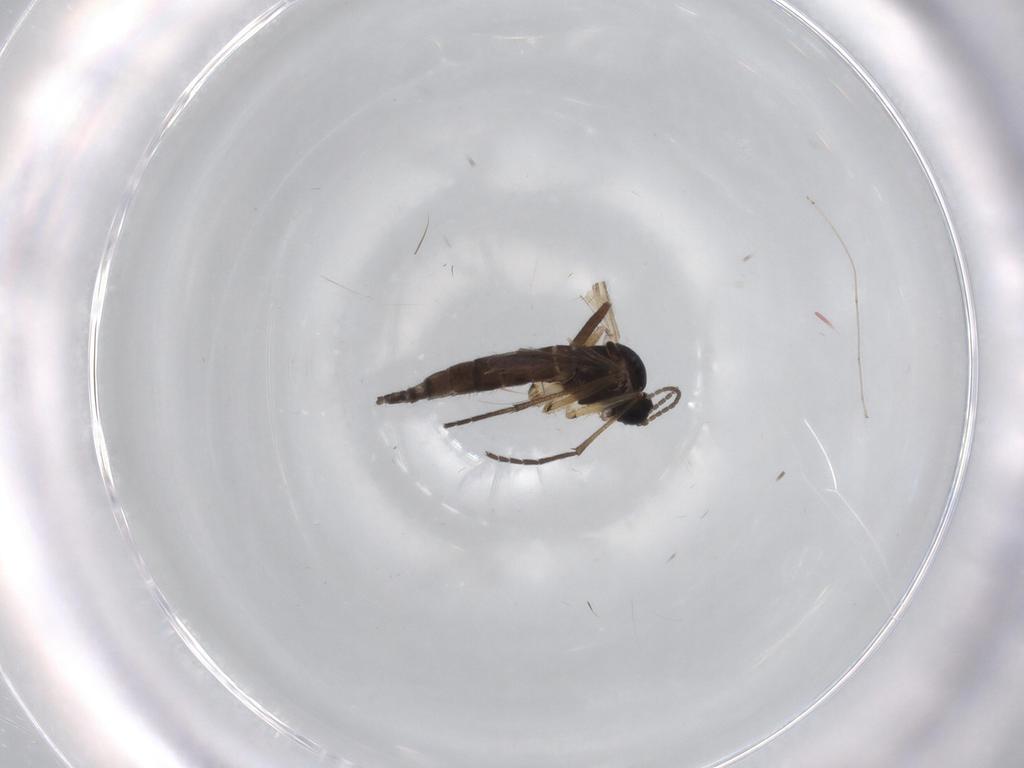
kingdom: Animalia
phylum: Arthropoda
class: Insecta
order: Diptera
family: Sciaridae
